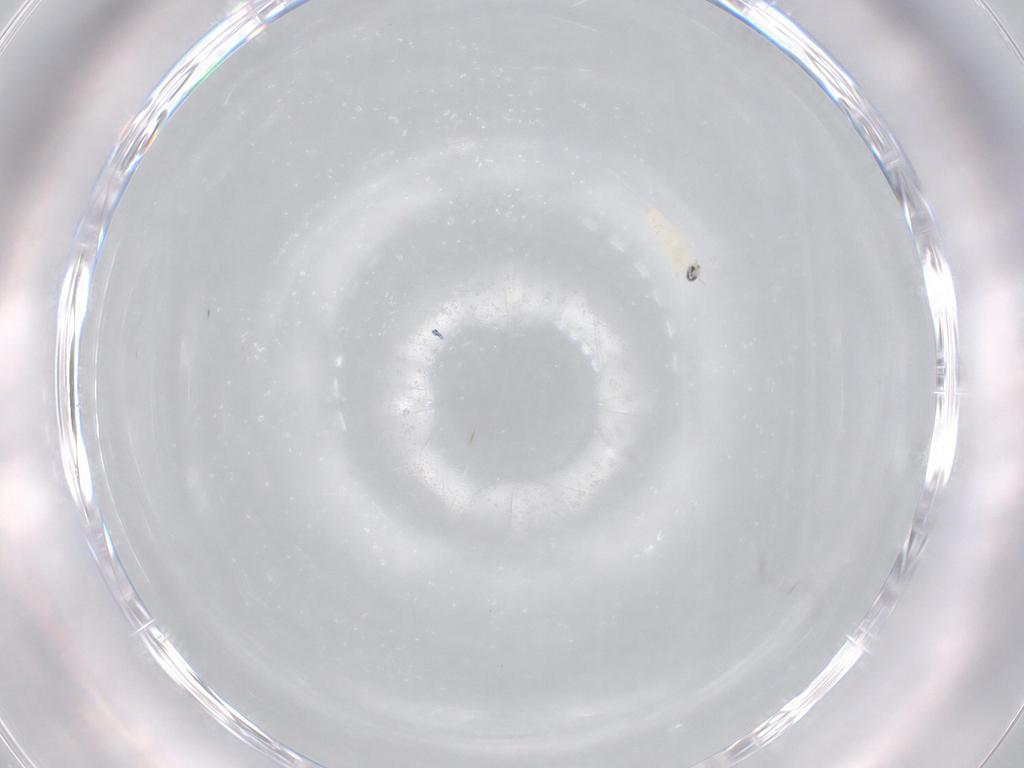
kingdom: Animalia
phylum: Arthropoda
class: Insecta
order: Diptera
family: Cecidomyiidae
